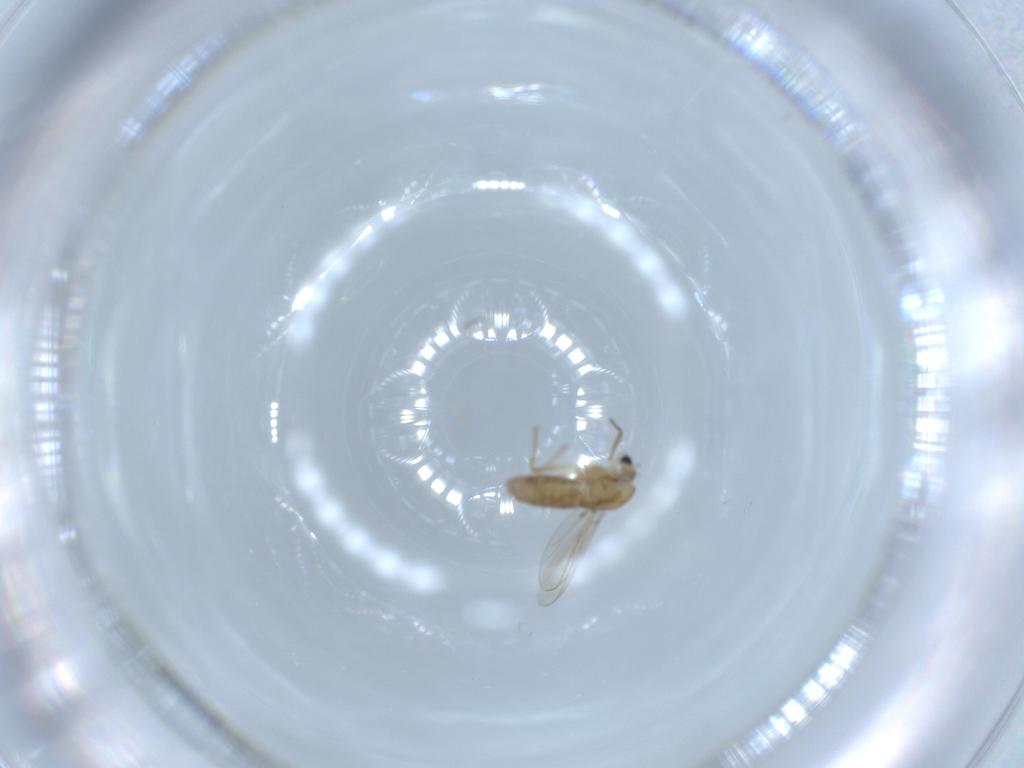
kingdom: Animalia
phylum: Arthropoda
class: Insecta
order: Diptera
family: Chironomidae
